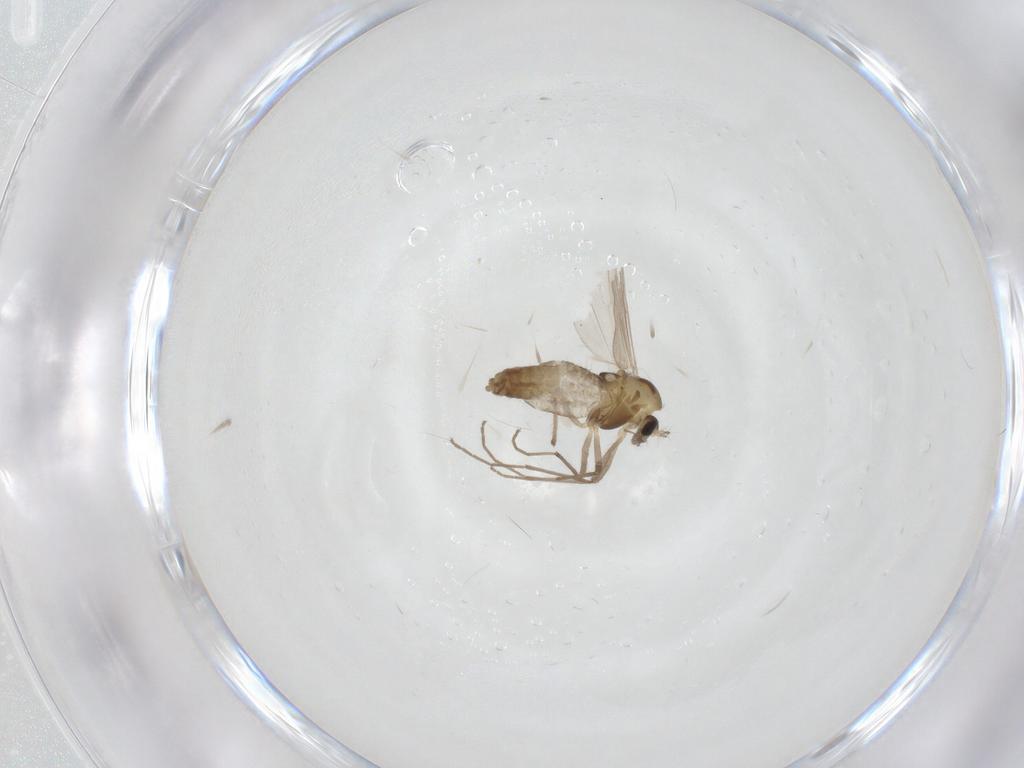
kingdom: Animalia
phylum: Arthropoda
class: Insecta
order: Diptera
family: Chironomidae
